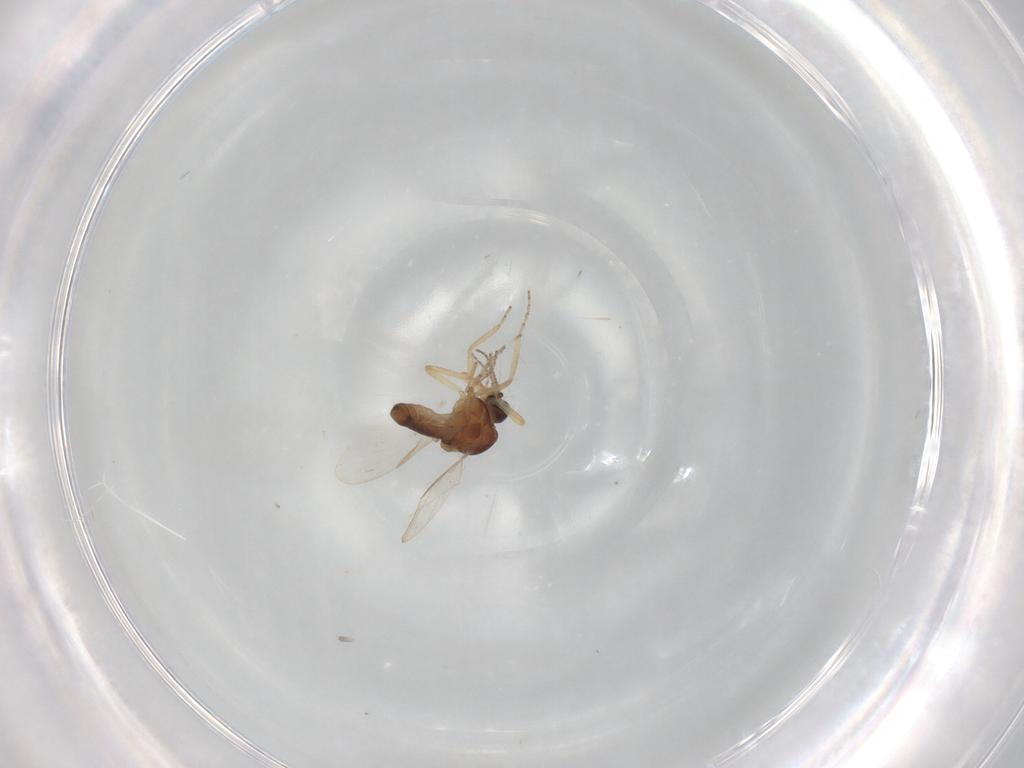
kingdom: Animalia
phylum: Arthropoda
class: Insecta
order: Diptera
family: Ceratopogonidae
